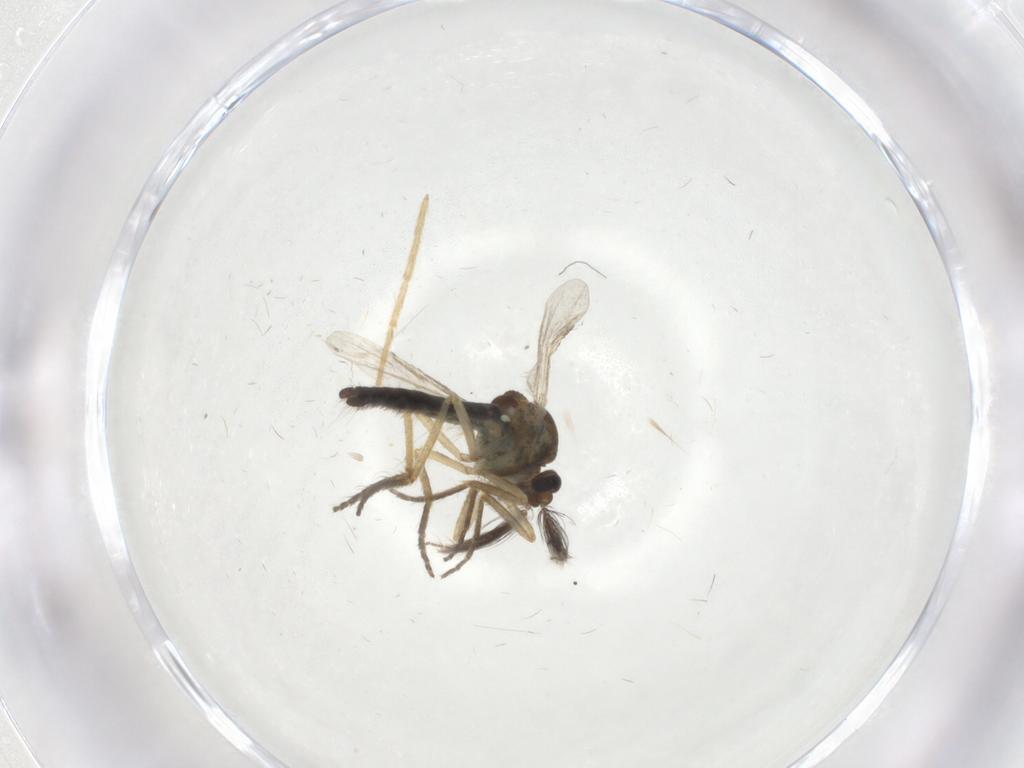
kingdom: Animalia
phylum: Arthropoda
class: Insecta
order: Diptera
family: Ceratopogonidae
